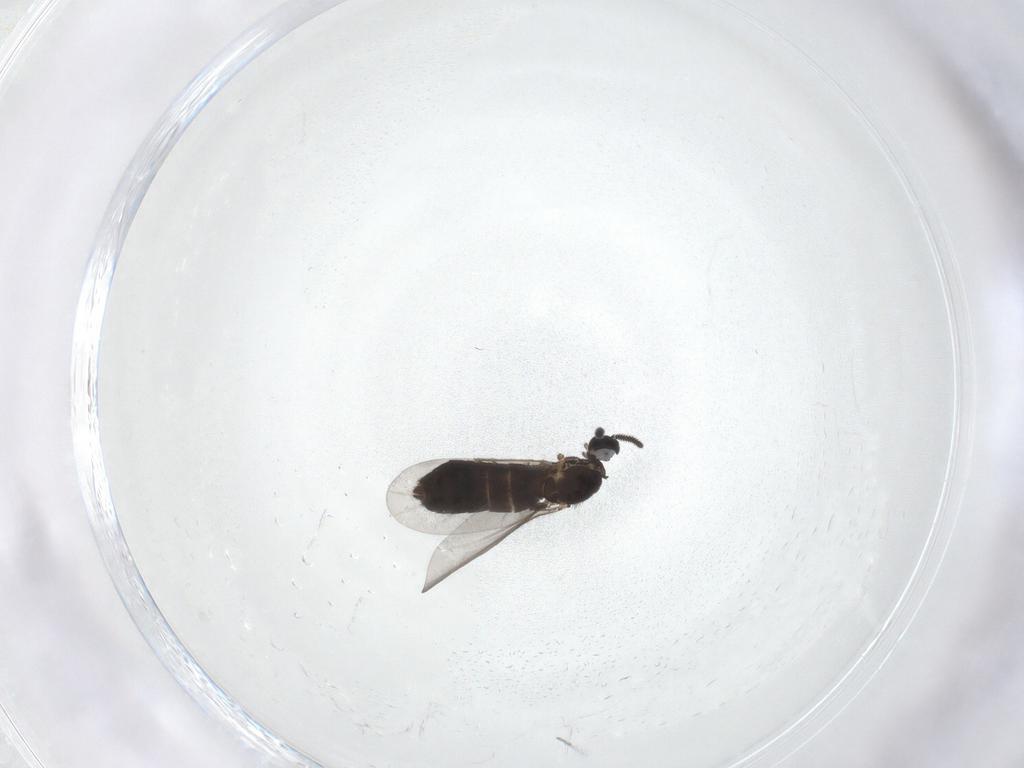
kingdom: Animalia
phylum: Arthropoda
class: Insecta
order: Diptera
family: Scatopsidae
